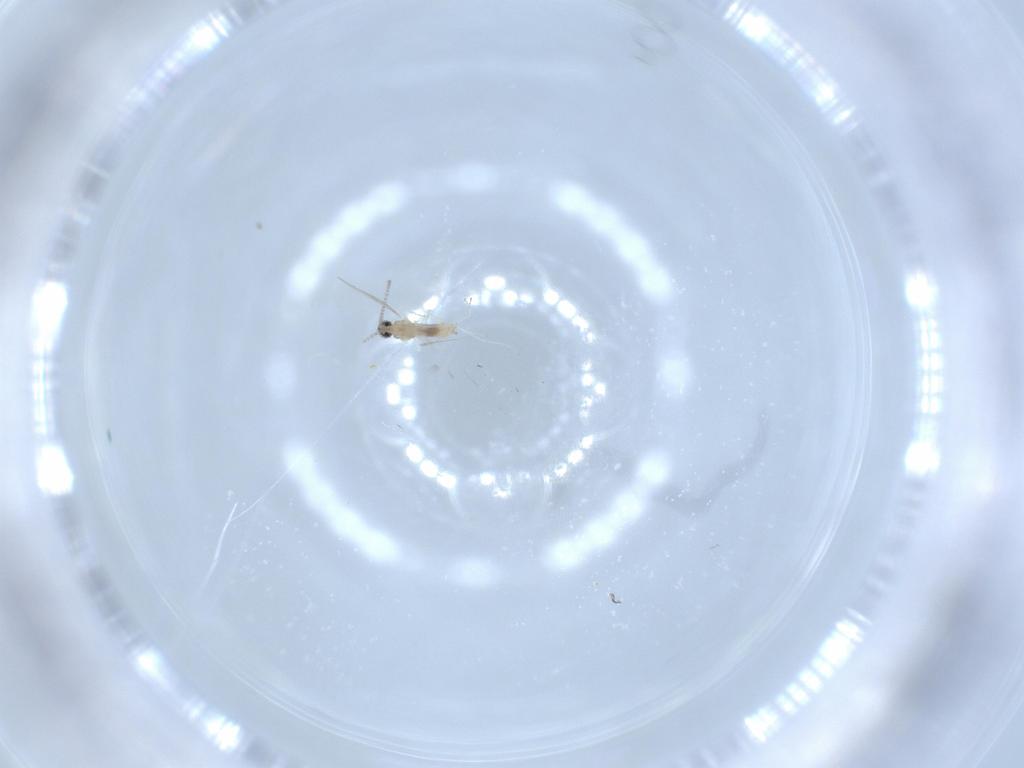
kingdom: Animalia
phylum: Arthropoda
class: Insecta
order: Diptera
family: Cecidomyiidae
